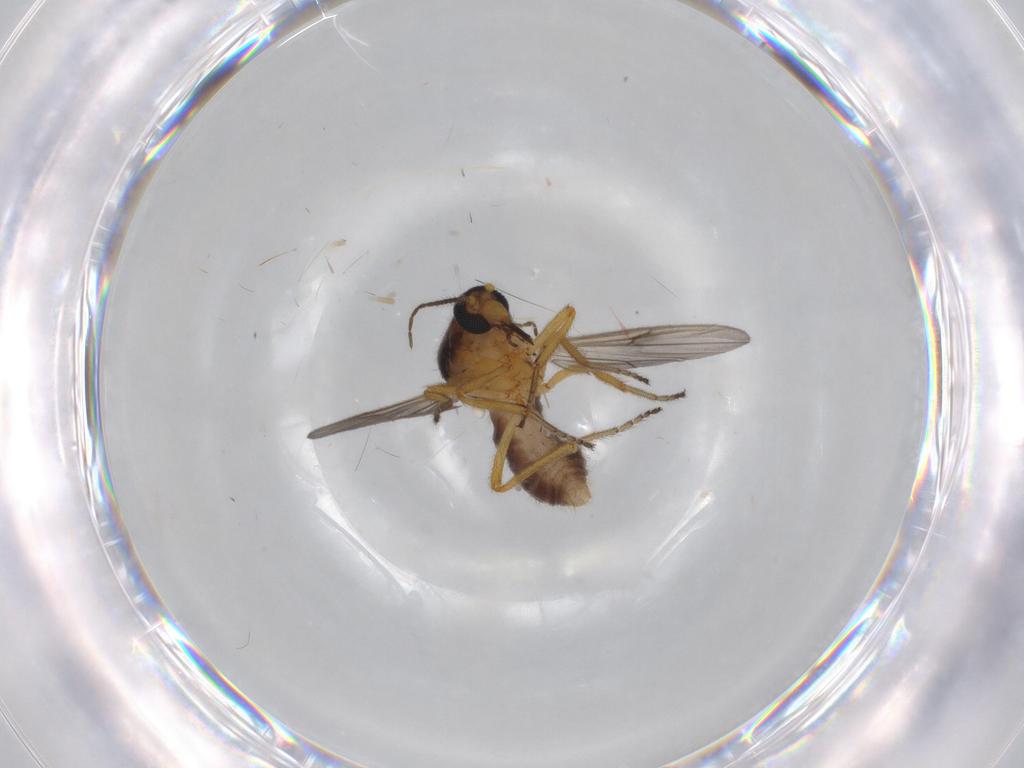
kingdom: Animalia
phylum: Arthropoda
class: Insecta
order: Diptera
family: Ceratopogonidae
